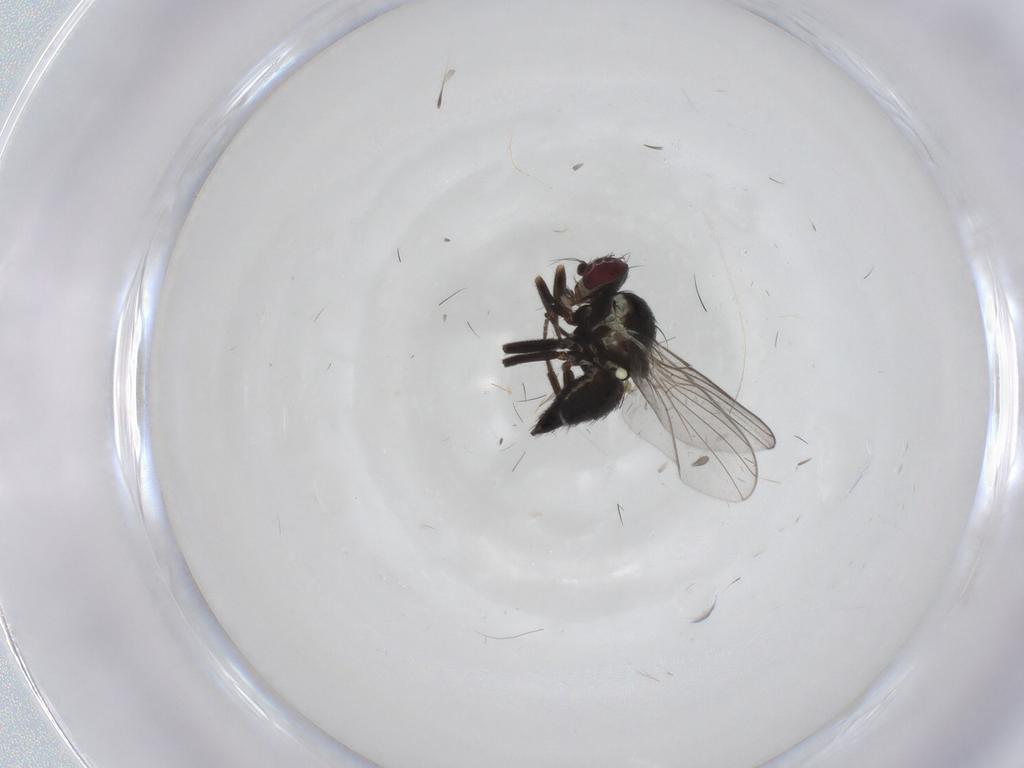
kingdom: Animalia
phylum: Arthropoda
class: Insecta
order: Diptera
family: Agromyzidae
